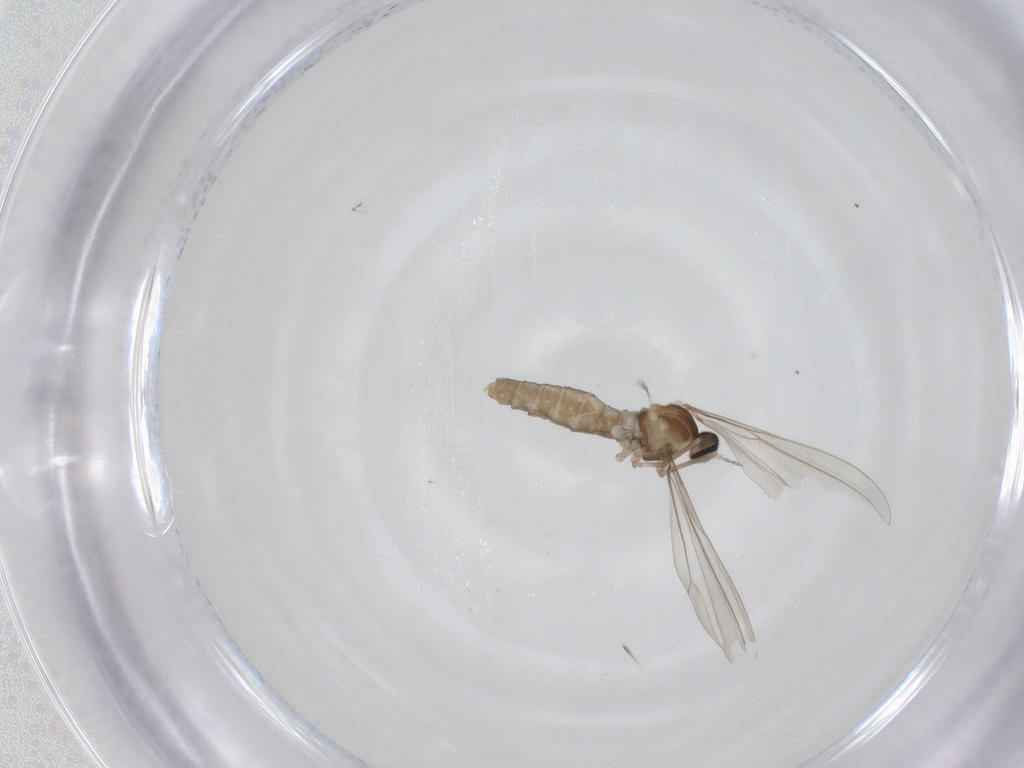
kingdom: Animalia
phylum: Arthropoda
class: Insecta
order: Diptera
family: Cecidomyiidae
